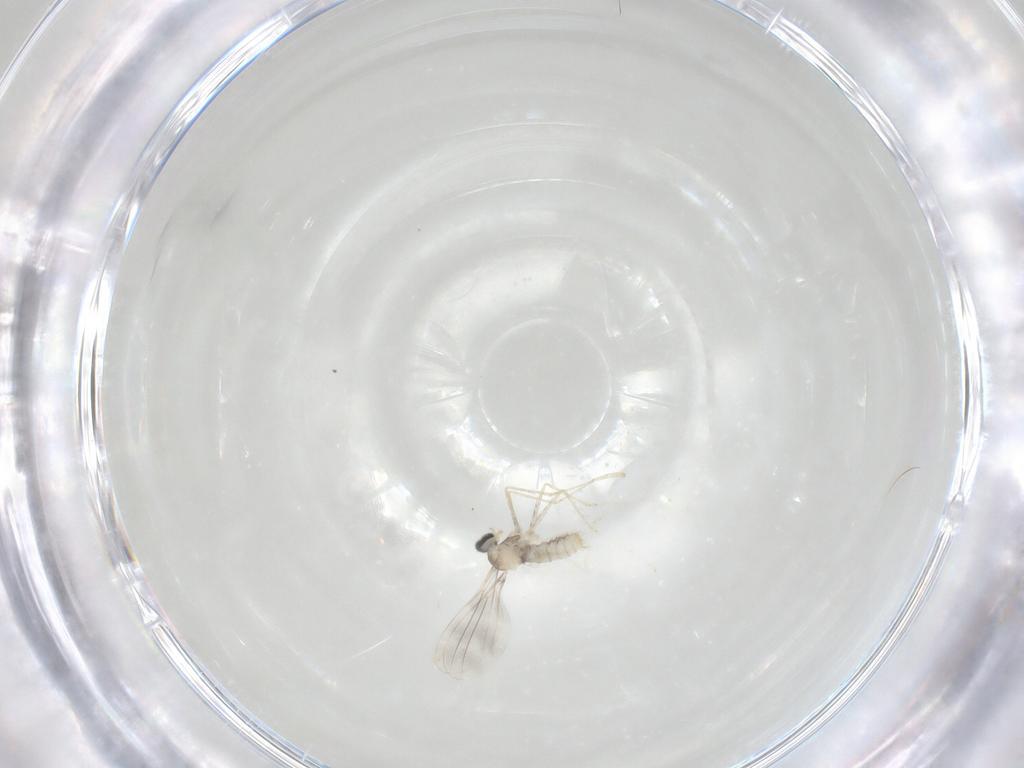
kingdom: Animalia
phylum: Arthropoda
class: Insecta
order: Diptera
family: Cecidomyiidae
